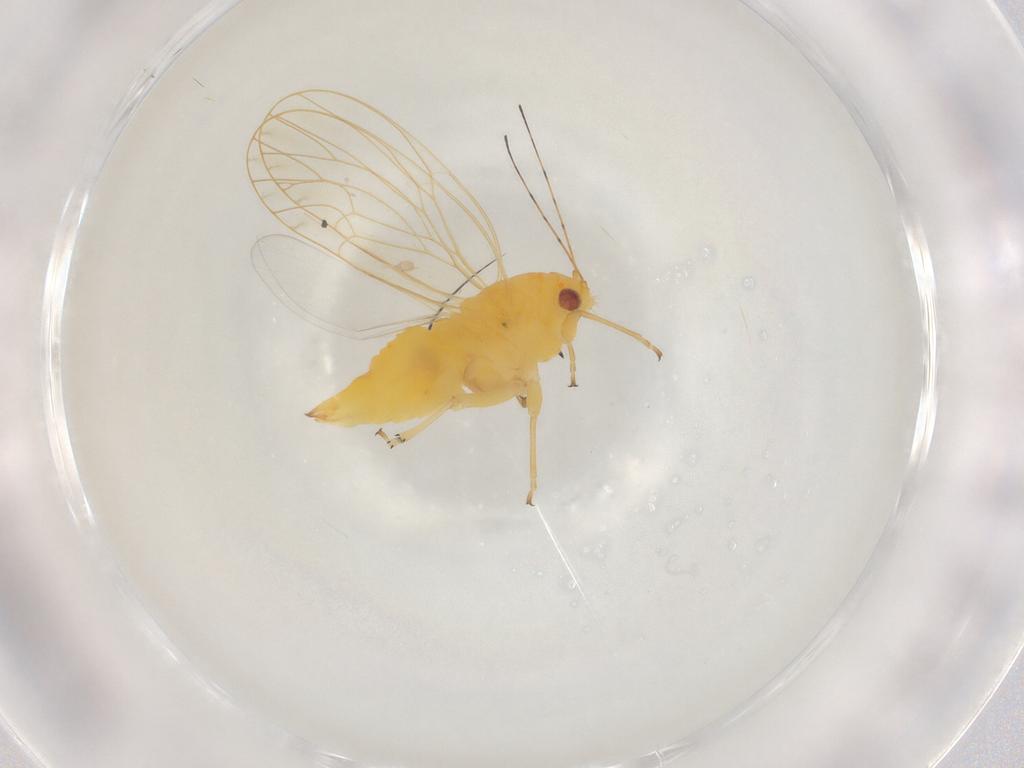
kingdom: Animalia
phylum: Arthropoda
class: Insecta
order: Hemiptera
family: Psyllidae
